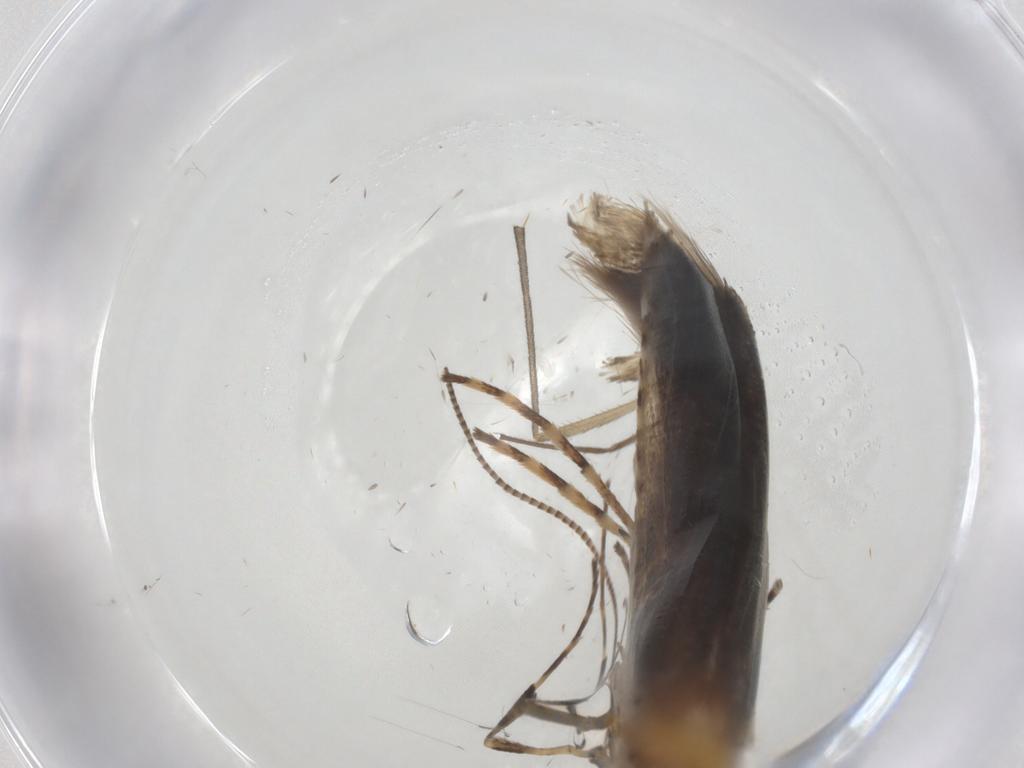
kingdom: Animalia
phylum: Arthropoda
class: Insecta
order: Lepidoptera
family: Gracillariidae
